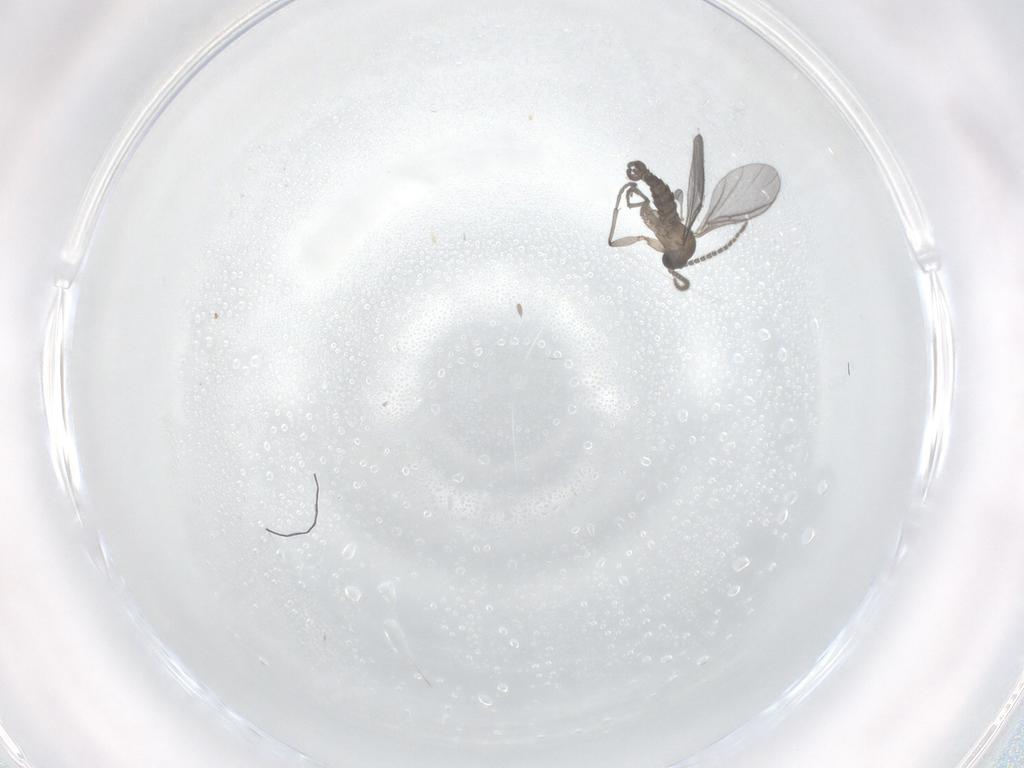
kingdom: Animalia
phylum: Arthropoda
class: Insecta
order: Diptera
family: Sciaridae
